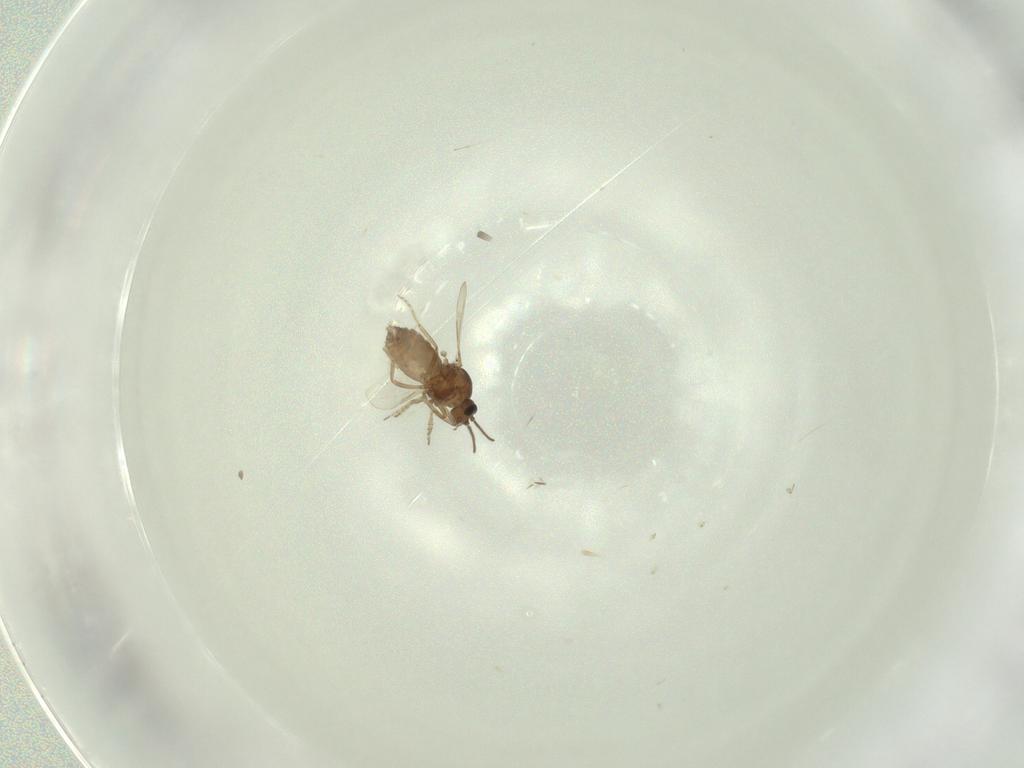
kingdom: Animalia
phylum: Arthropoda
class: Insecta
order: Diptera
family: Ceratopogonidae
